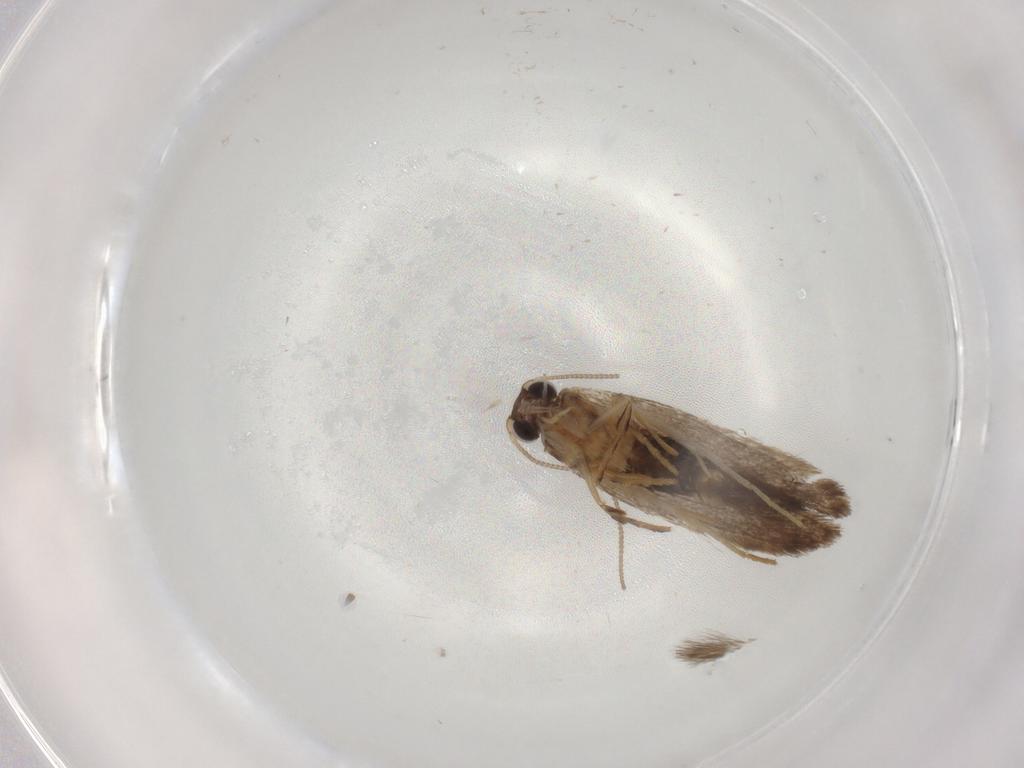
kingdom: Animalia
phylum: Arthropoda
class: Insecta
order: Lepidoptera
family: Tineidae
